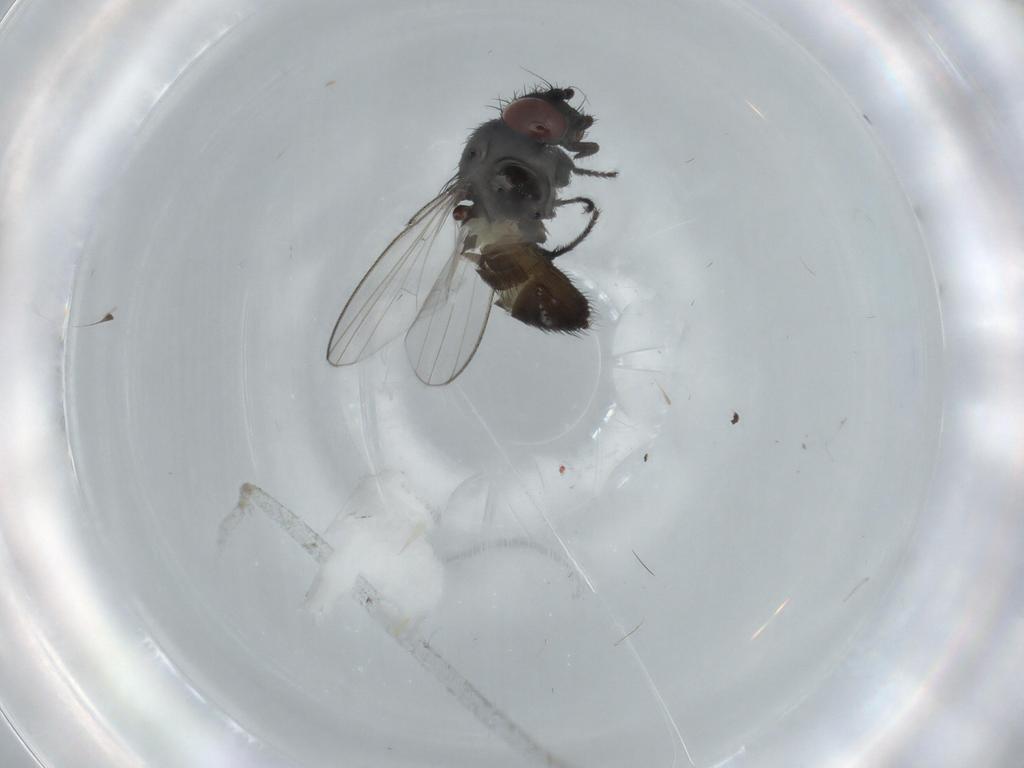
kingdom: Animalia
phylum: Arthropoda
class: Insecta
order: Diptera
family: Milichiidae
